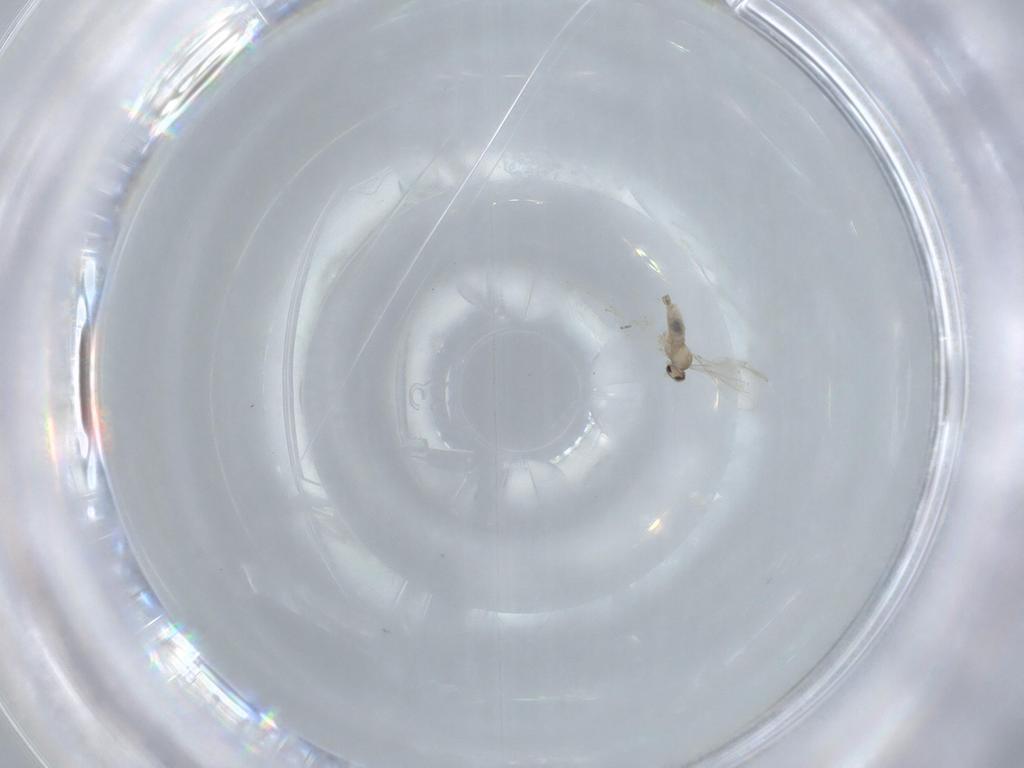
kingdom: Animalia
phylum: Arthropoda
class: Insecta
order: Diptera
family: Cecidomyiidae
